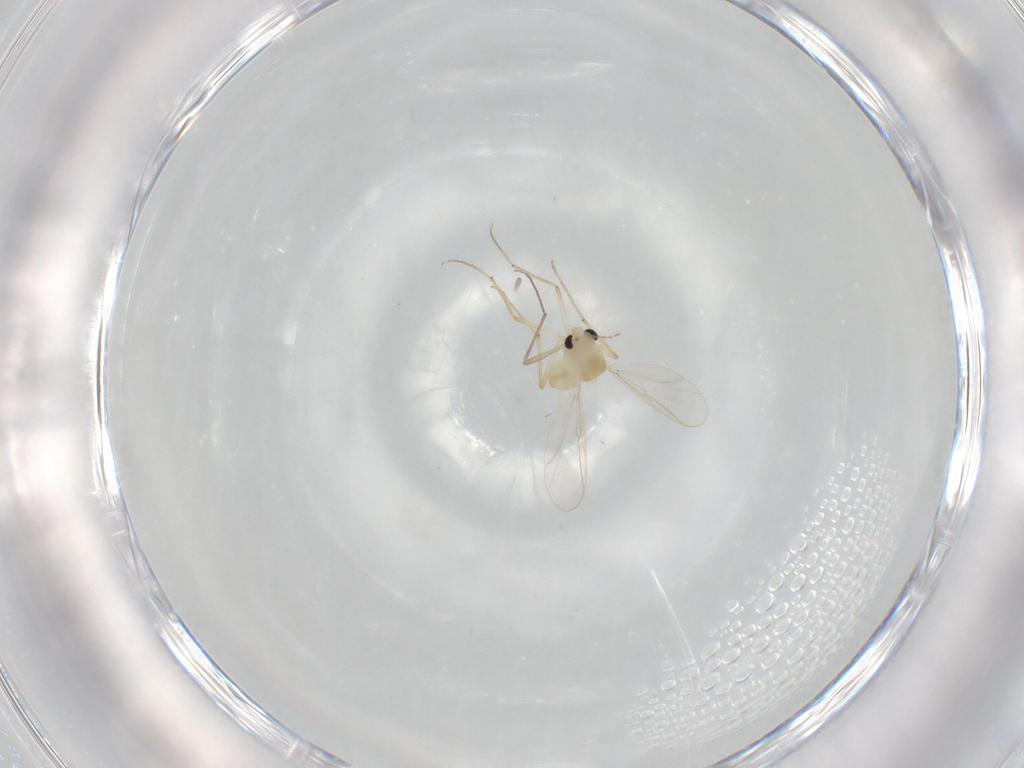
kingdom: Animalia
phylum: Arthropoda
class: Insecta
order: Diptera
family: Chironomidae
